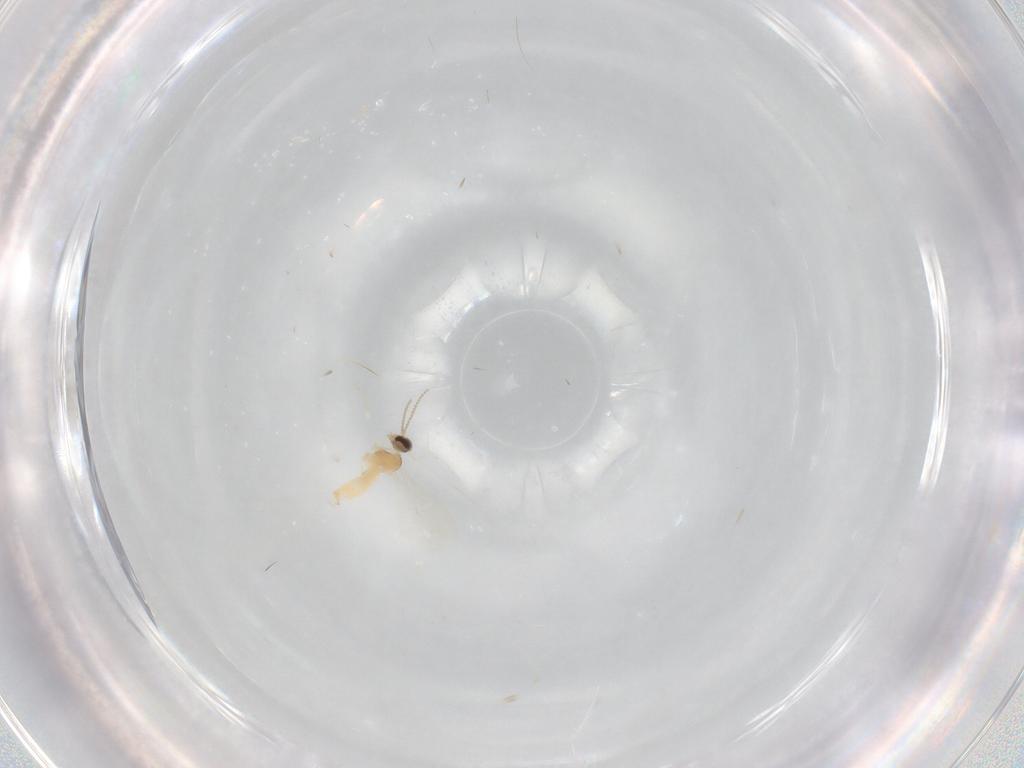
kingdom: Animalia
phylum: Arthropoda
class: Insecta
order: Diptera
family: Cecidomyiidae
